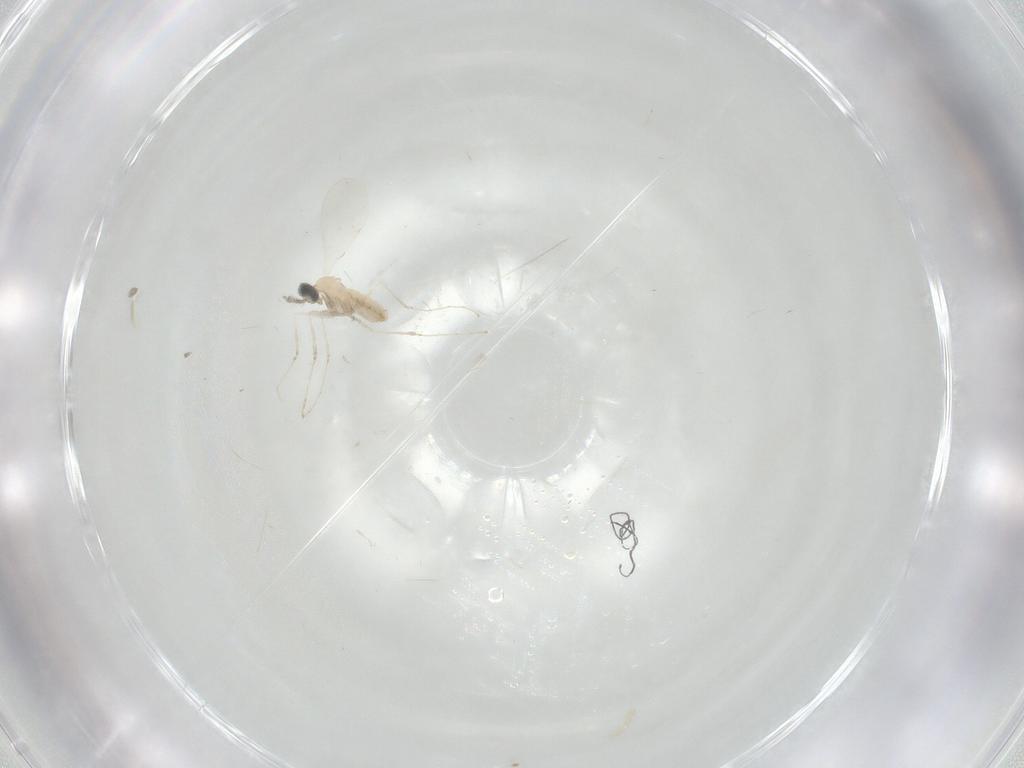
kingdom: Animalia
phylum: Arthropoda
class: Insecta
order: Diptera
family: Cecidomyiidae
